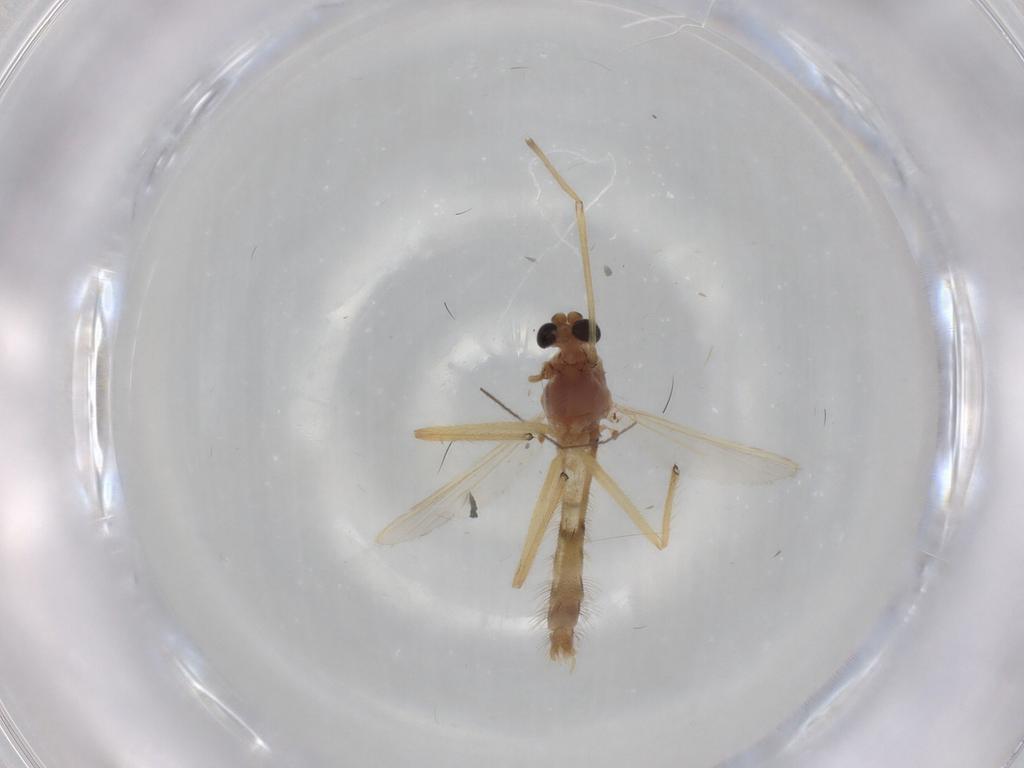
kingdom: Animalia
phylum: Arthropoda
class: Insecta
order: Diptera
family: Chironomidae
